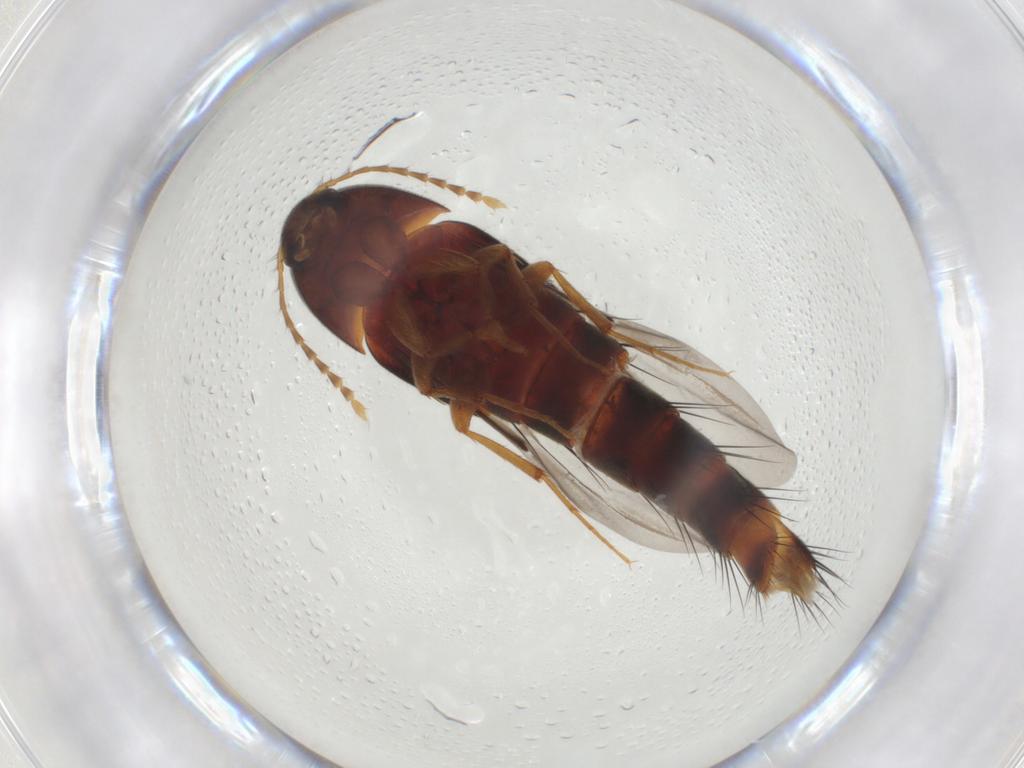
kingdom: Animalia
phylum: Arthropoda
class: Insecta
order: Coleoptera
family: Staphylinidae
